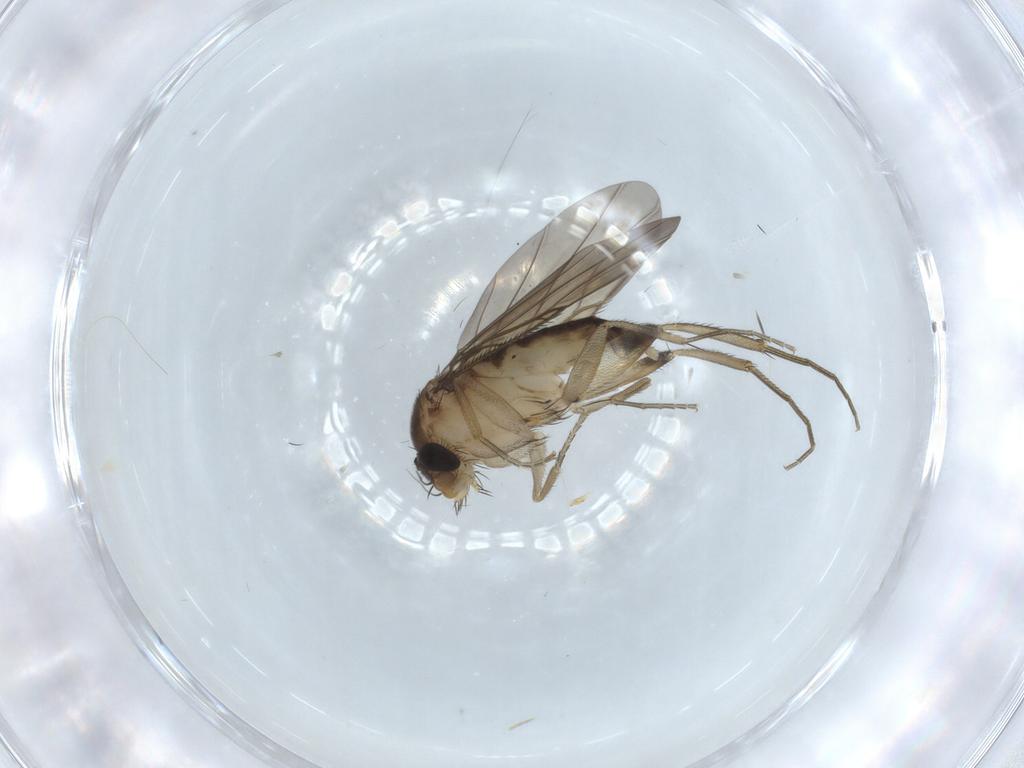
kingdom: Animalia
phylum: Arthropoda
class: Insecta
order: Diptera
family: Phoridae
